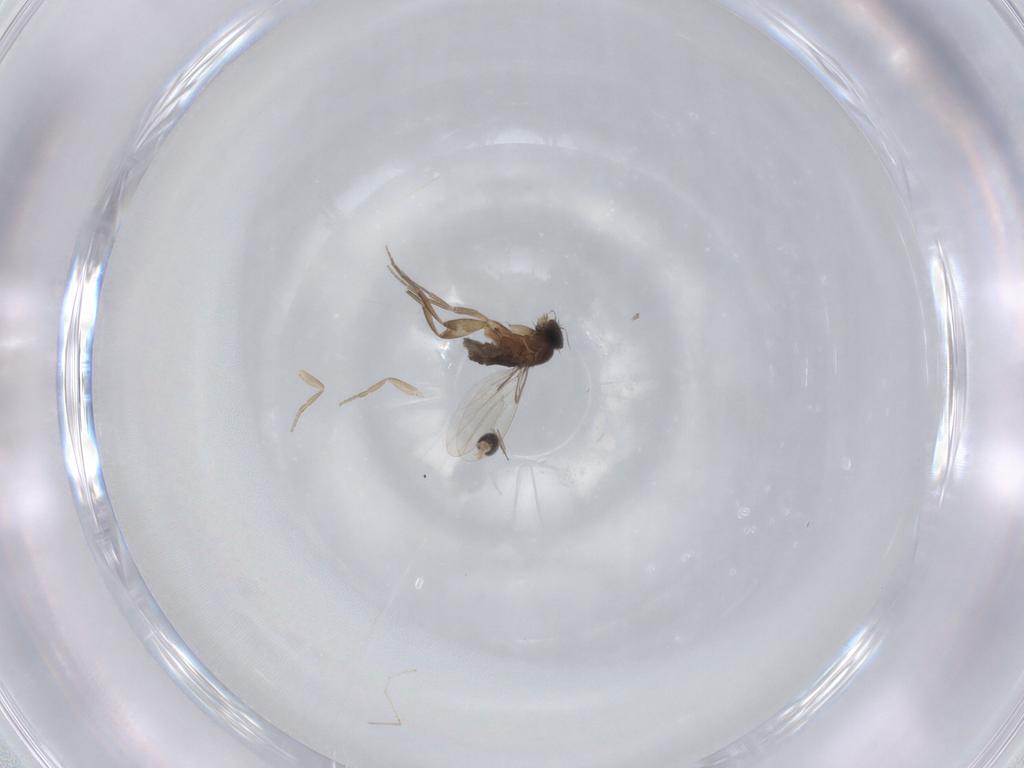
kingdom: Animalia
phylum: Arthropoda
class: Insecta
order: Diptera
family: Phoridae
